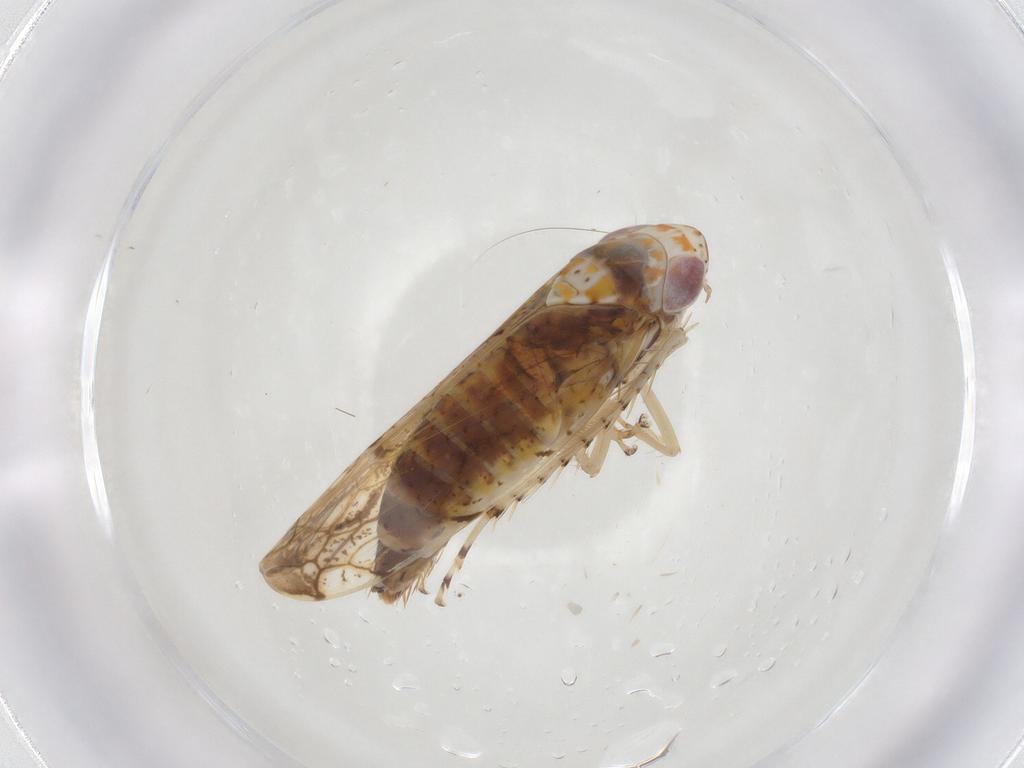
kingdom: Animalia
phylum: Arthropoda
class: Insecta
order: Hemiptera
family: Cicadellidae
